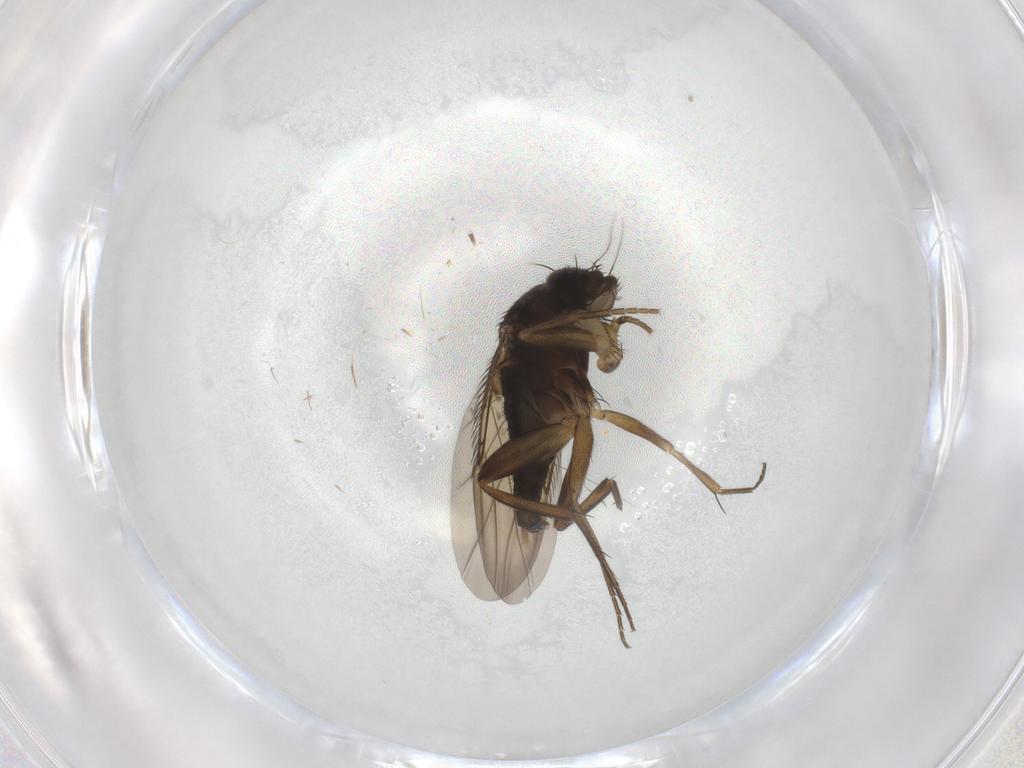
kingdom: Animalia
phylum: Arthropoda
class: Insecta
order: Diptera
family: Phoridae
